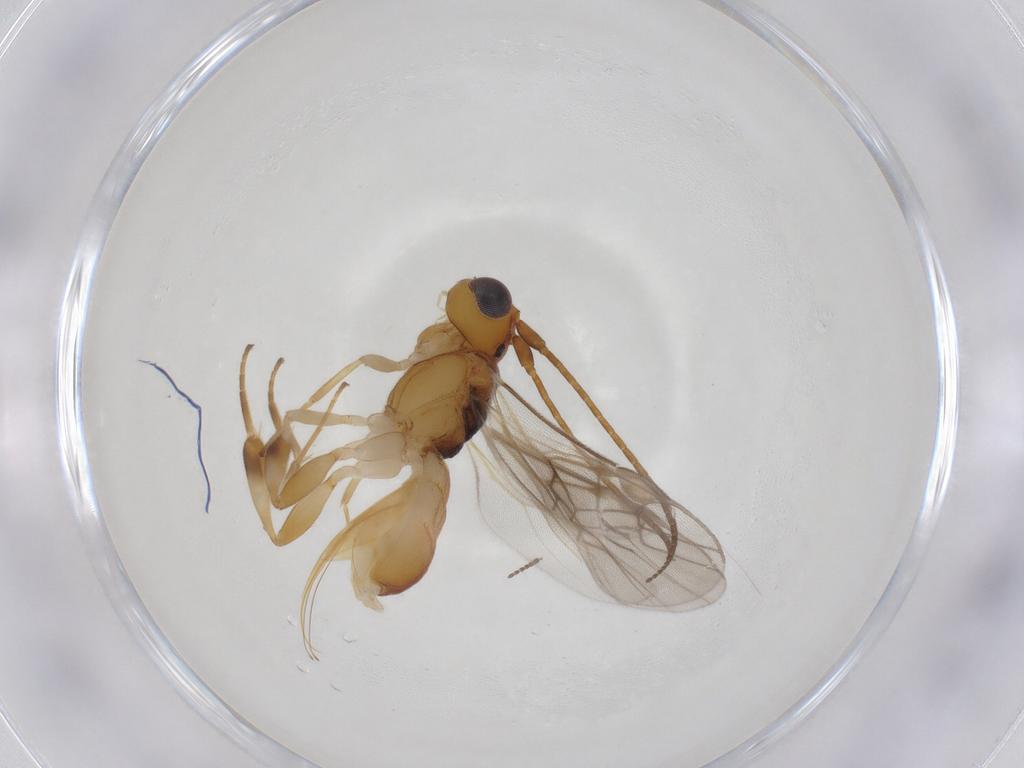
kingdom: Animalia
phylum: Arthropoda
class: Insecta
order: Hymenoptera
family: Braconidae
